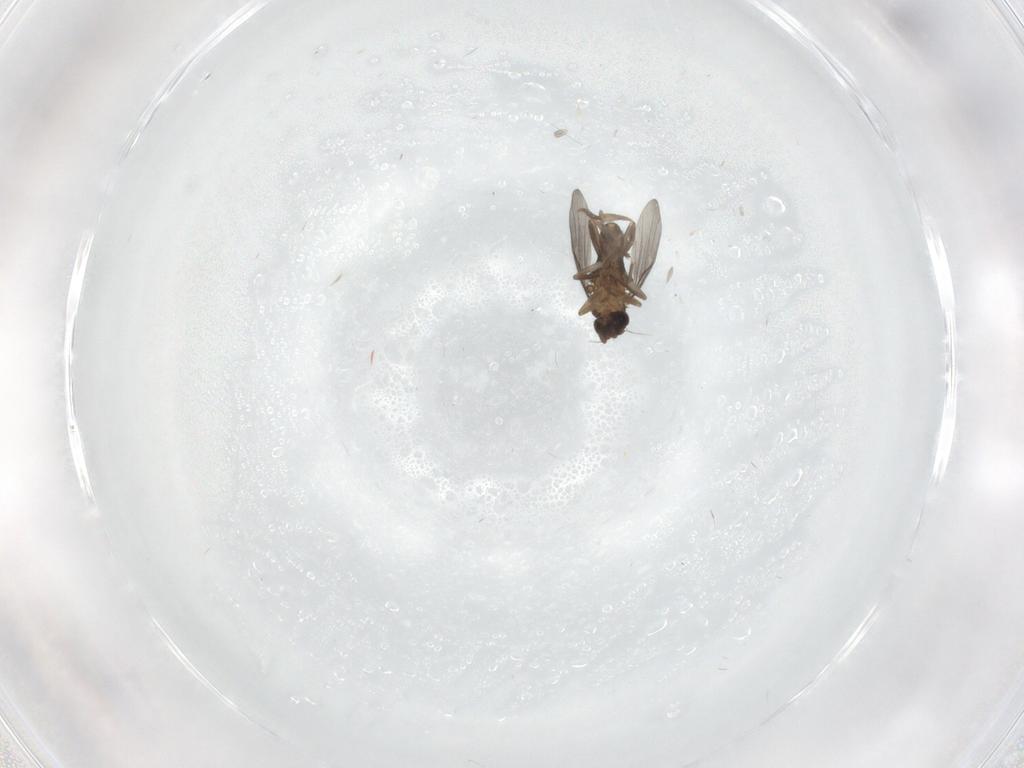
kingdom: Animalia
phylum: Arthropoda
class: Insecta
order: Diptera
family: Psychodidae
